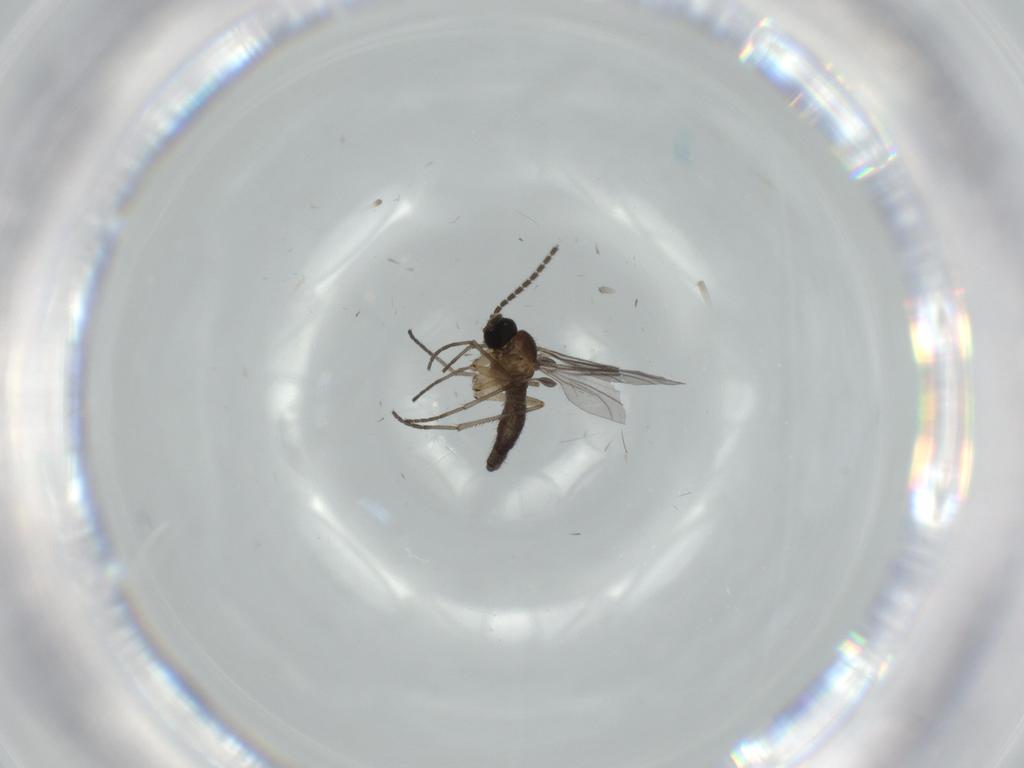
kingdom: Animalia
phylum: Arthropoda
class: Insecta
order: Diptera
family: Sciaridae
